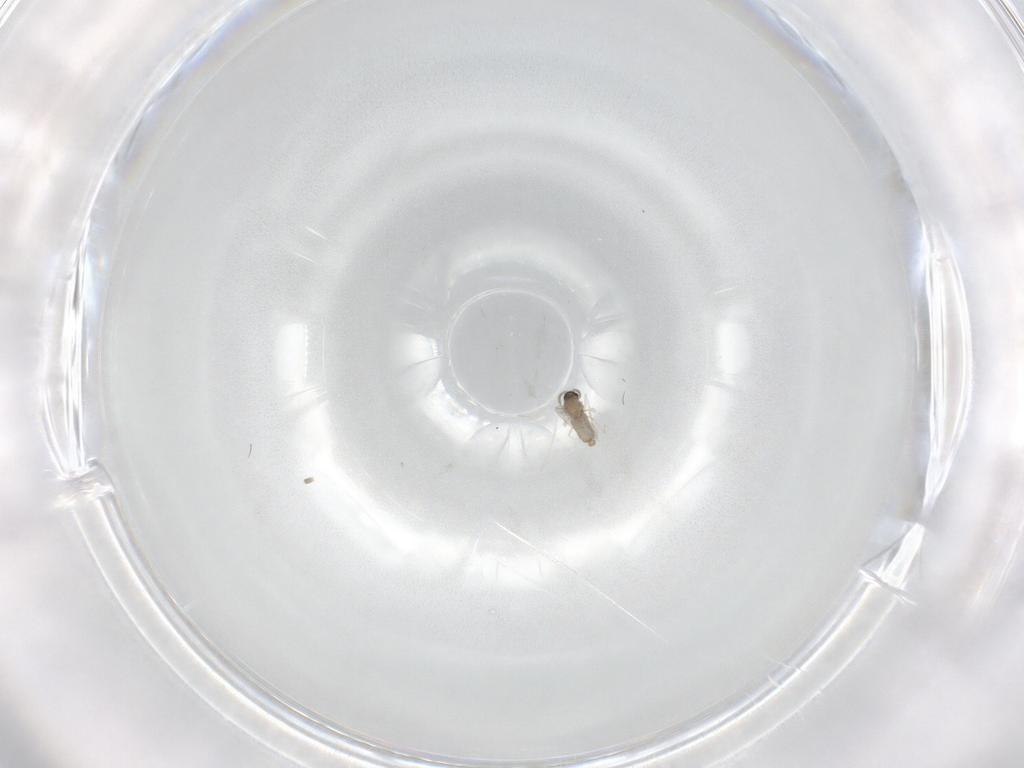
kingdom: Animalia
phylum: Arthropoda
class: Insecta
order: Diptera
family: Cecidomyiidae
